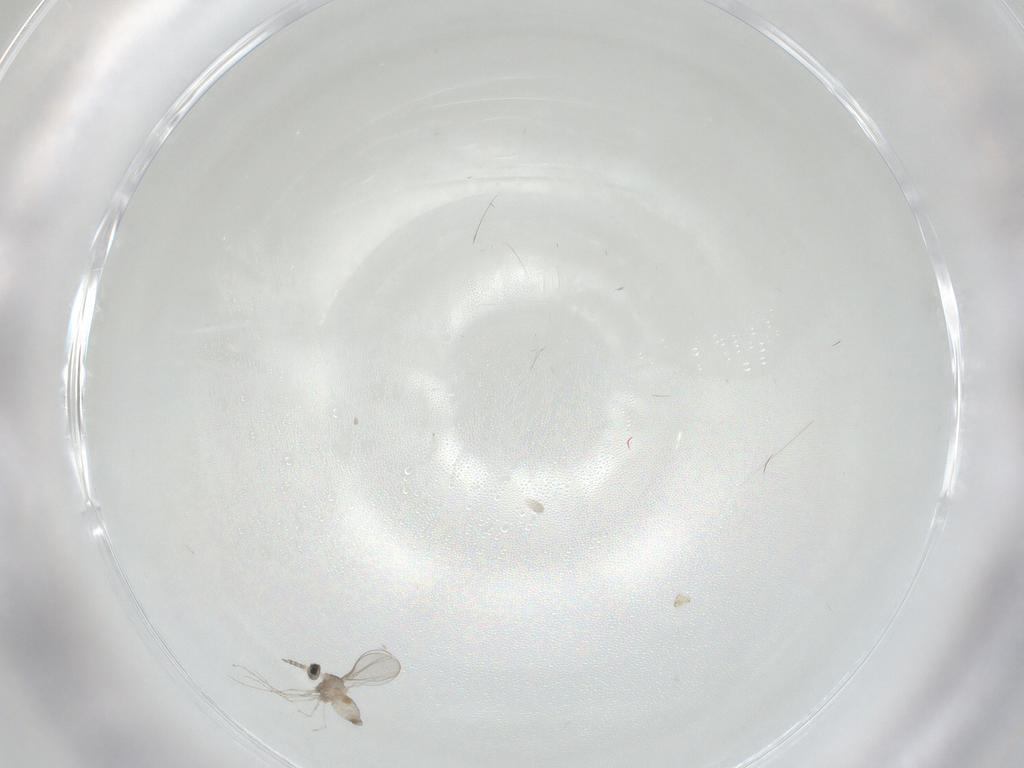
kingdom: Animalia
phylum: Arthropoda
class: Insecta
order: Diptera
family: Cecidomyiidae
